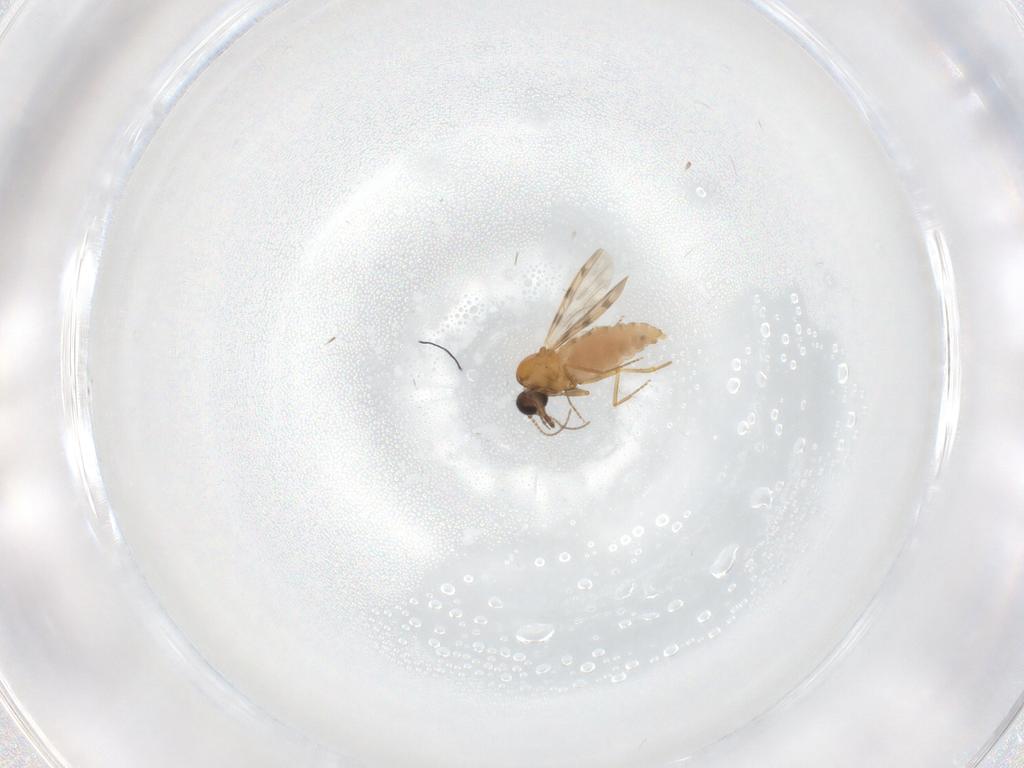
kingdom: Animalia
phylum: Arthropoda
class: Insecta
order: Diptera
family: Ceratopogonidae
